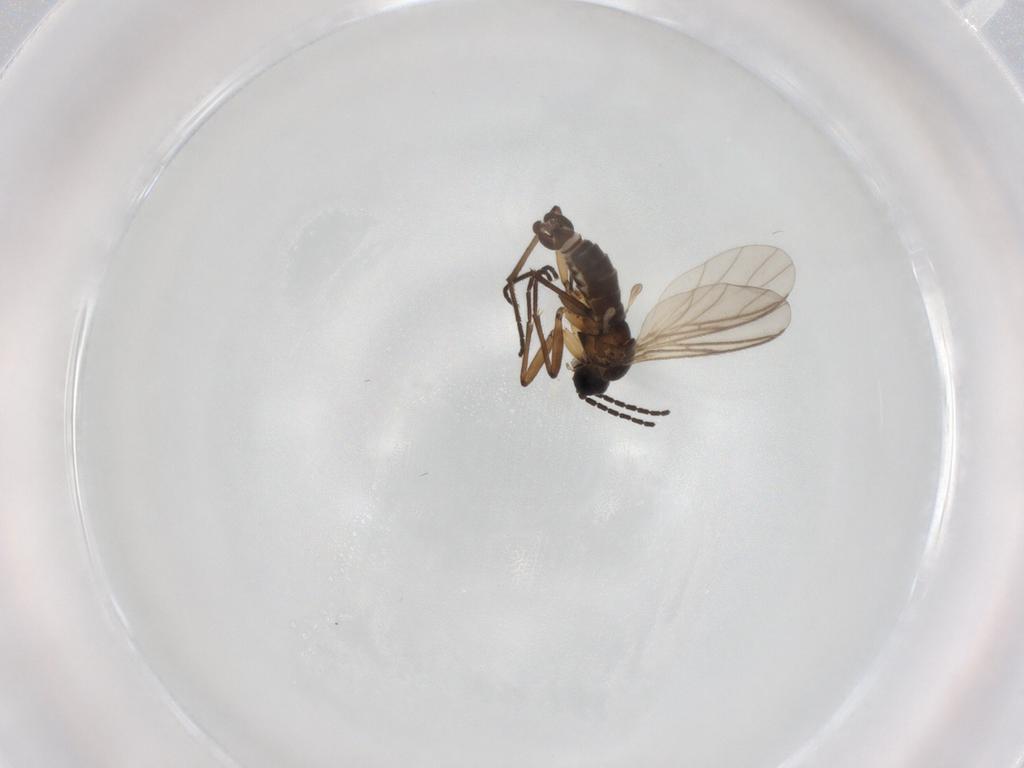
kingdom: Animalia
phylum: Arthropoda
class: Insecta
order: Diptera
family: Sciaridae
